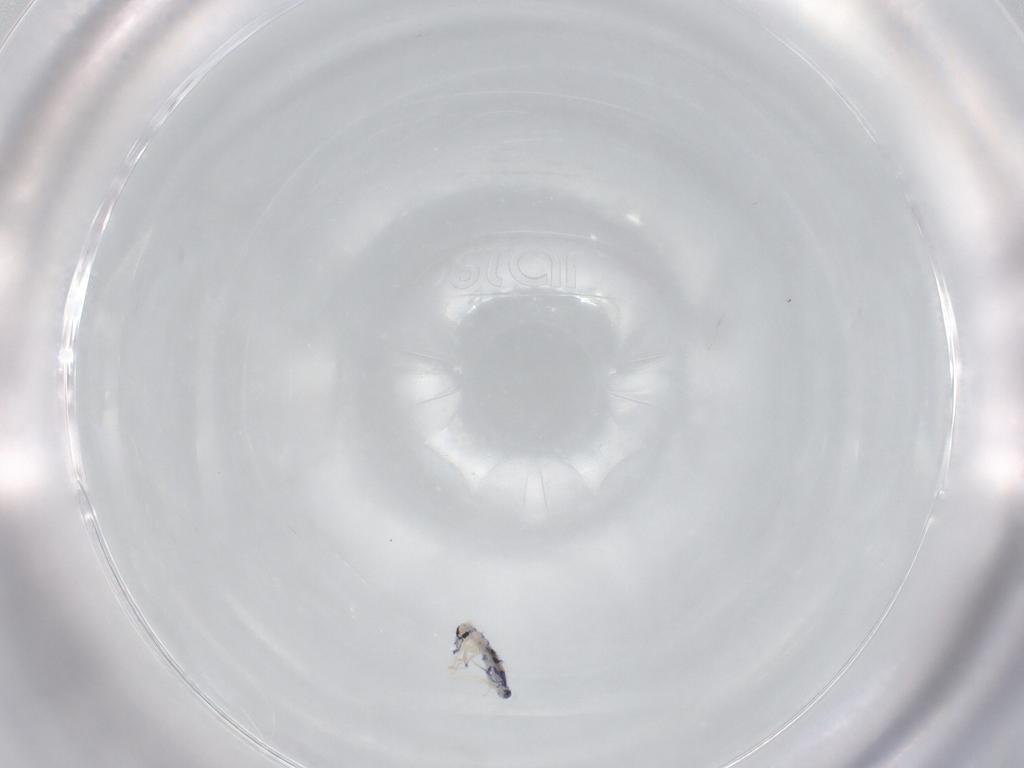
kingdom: Animalia
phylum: Arthropoda
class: Collembola
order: Entomobryomorpha
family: Entomobryidae
